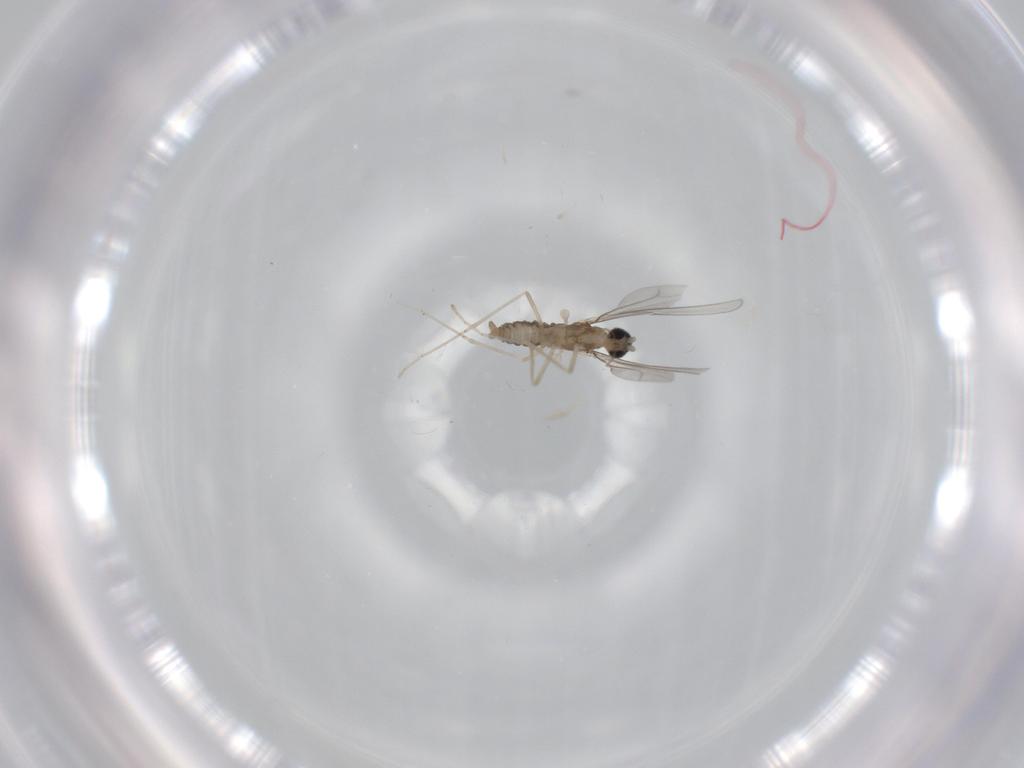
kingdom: Animalia
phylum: Arthropoda
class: Insecta
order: Diptera
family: Cecidomyiidae
